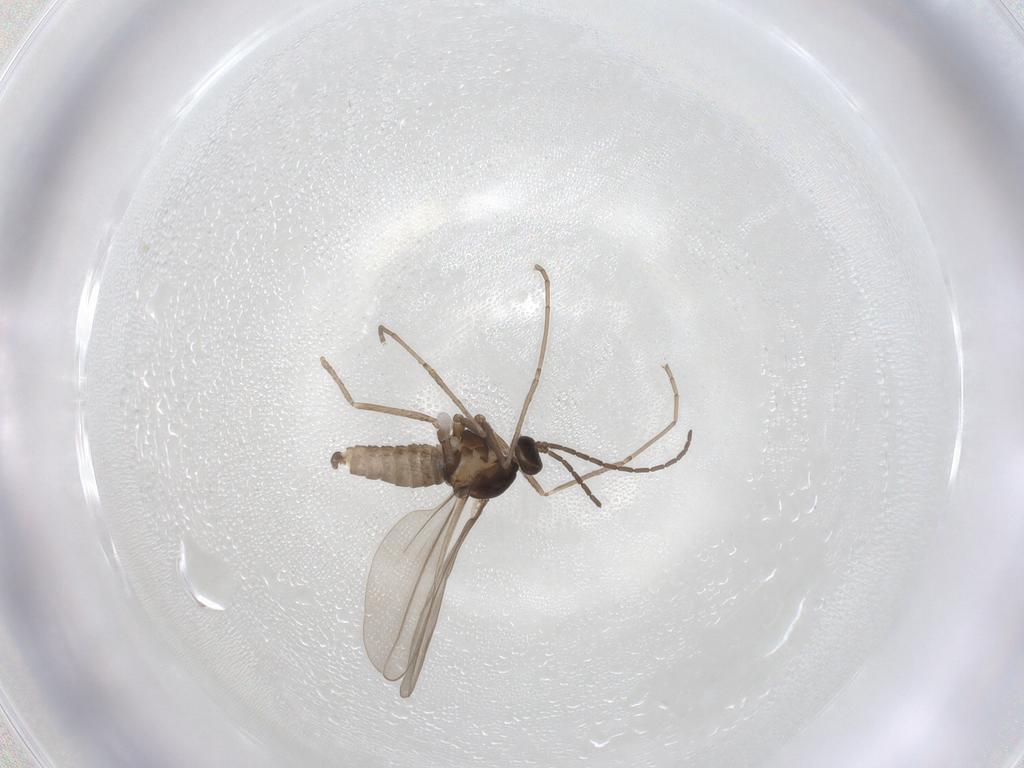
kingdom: Animalia
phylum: Arthropoda
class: Insecta
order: Diptera
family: Cecidomyiidae
